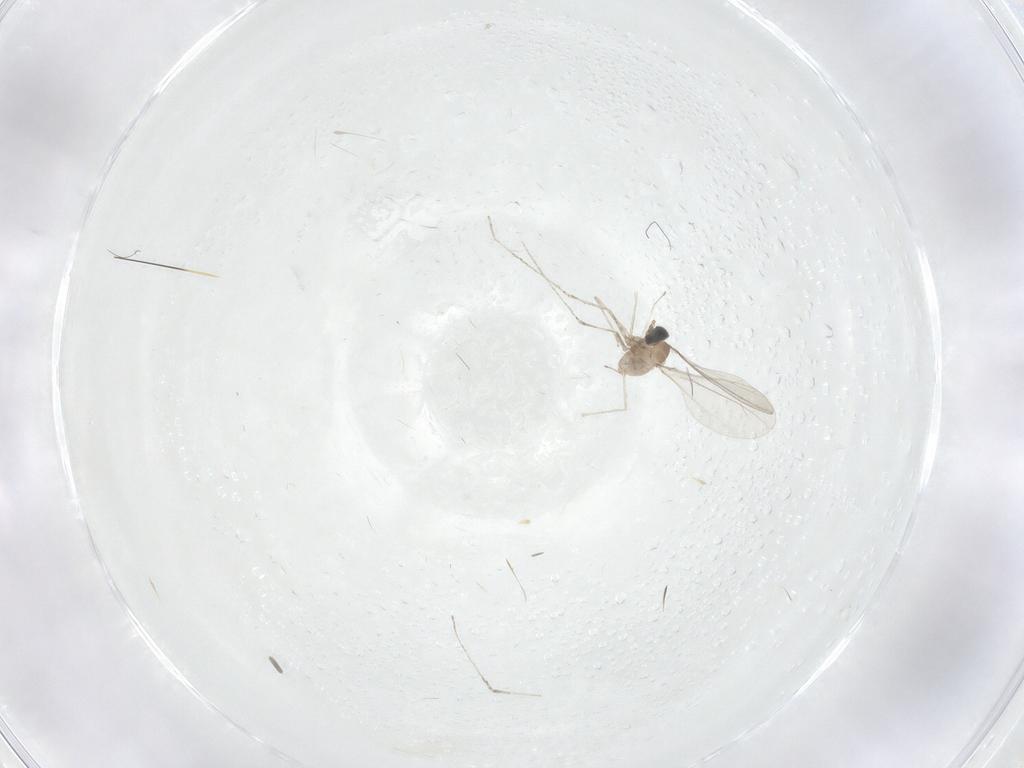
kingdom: Animalia
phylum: Arthropoda
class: Insecta
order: Diptera
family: Cecidomyiidae
